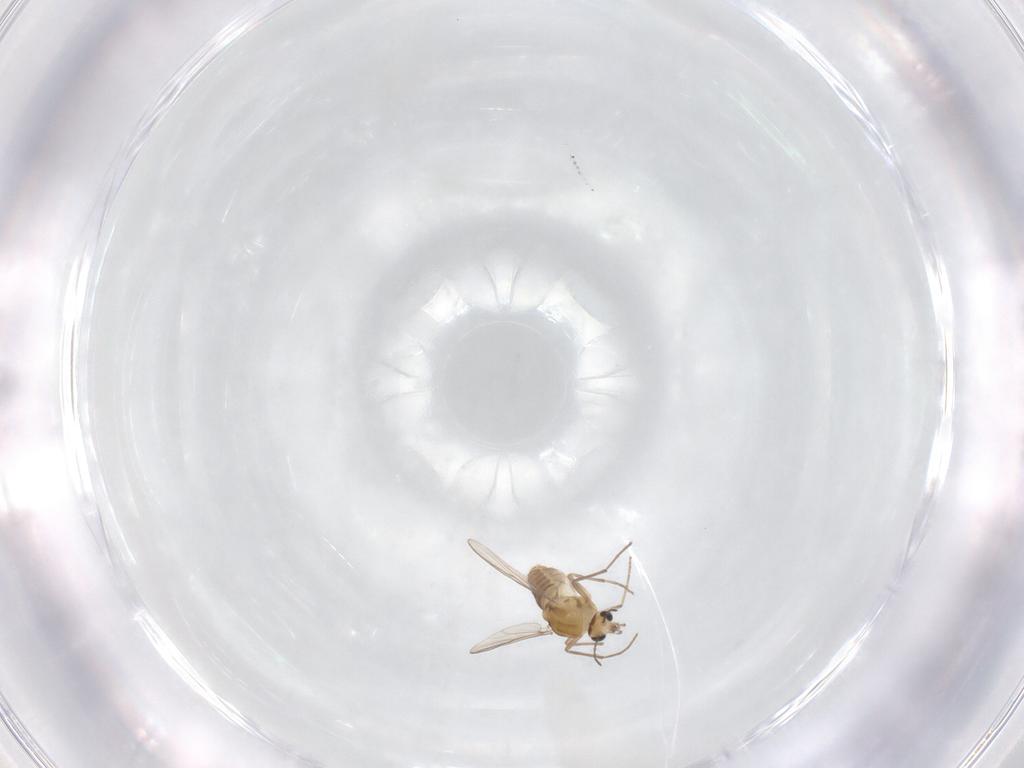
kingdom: Animalia
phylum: Arthropoda
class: Insecta
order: Diptera
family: Chironomidae
